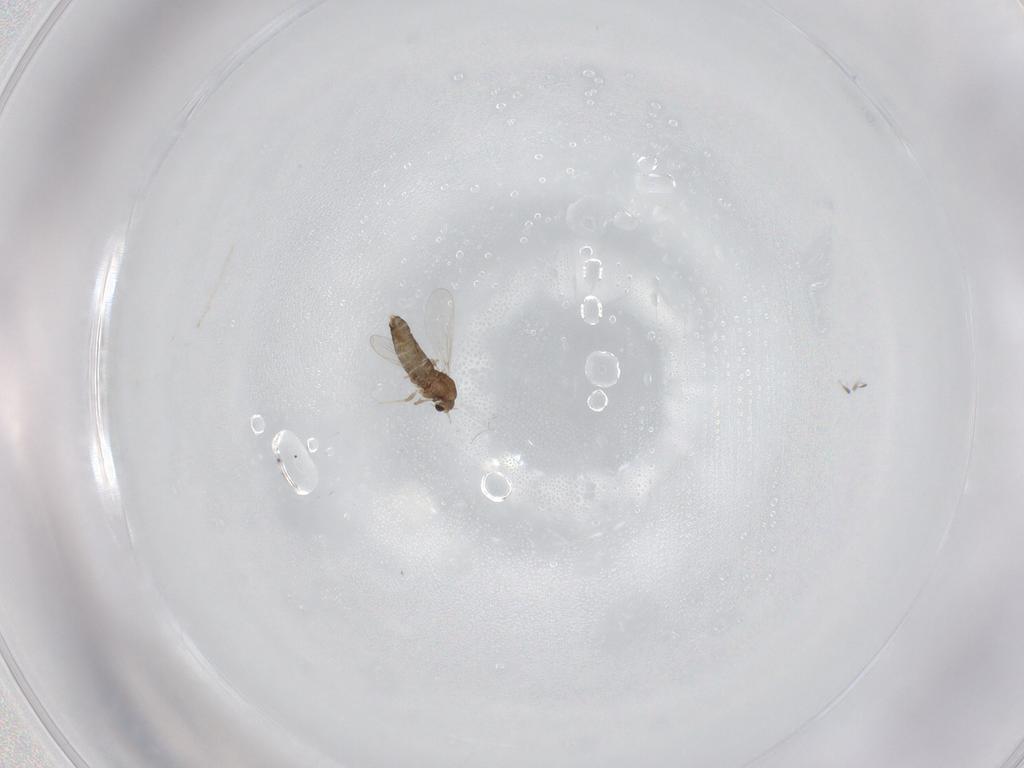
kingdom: Animalia
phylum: Arthropoda
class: Insecta
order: Diptera
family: Chironomidae
